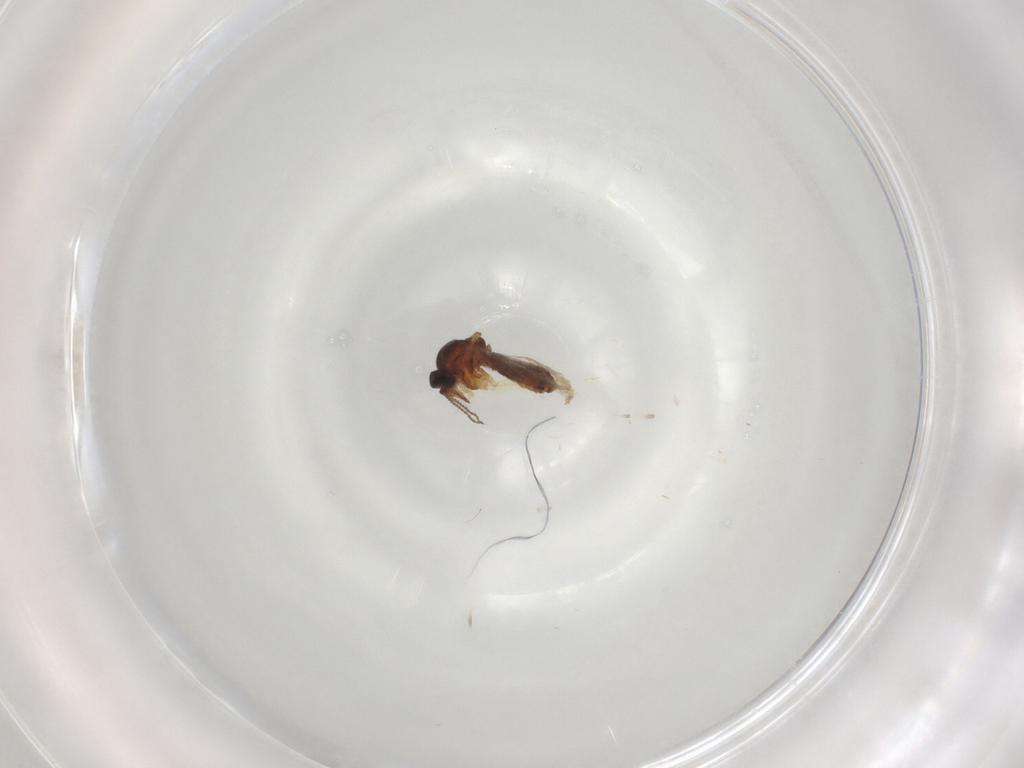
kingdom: Animalia
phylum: Arthropoda
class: Insecta
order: Diptera
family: Ceratopogonidae
